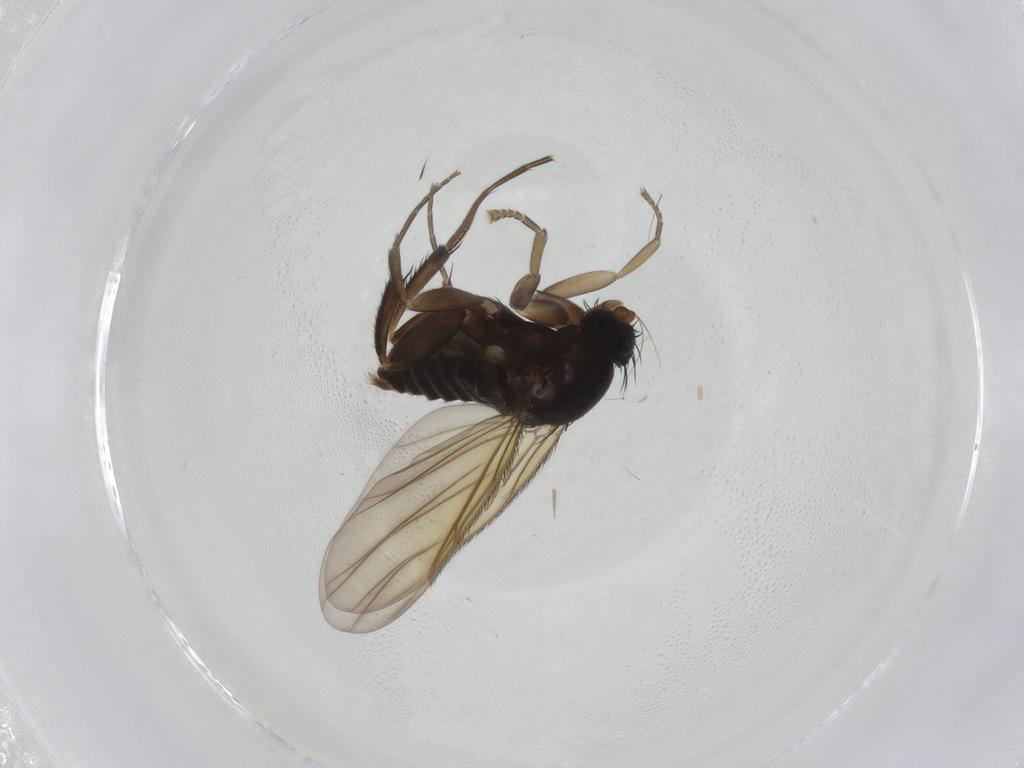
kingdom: Animalia
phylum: Arthropoda
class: Insecta
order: Diptera
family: Phoridae
